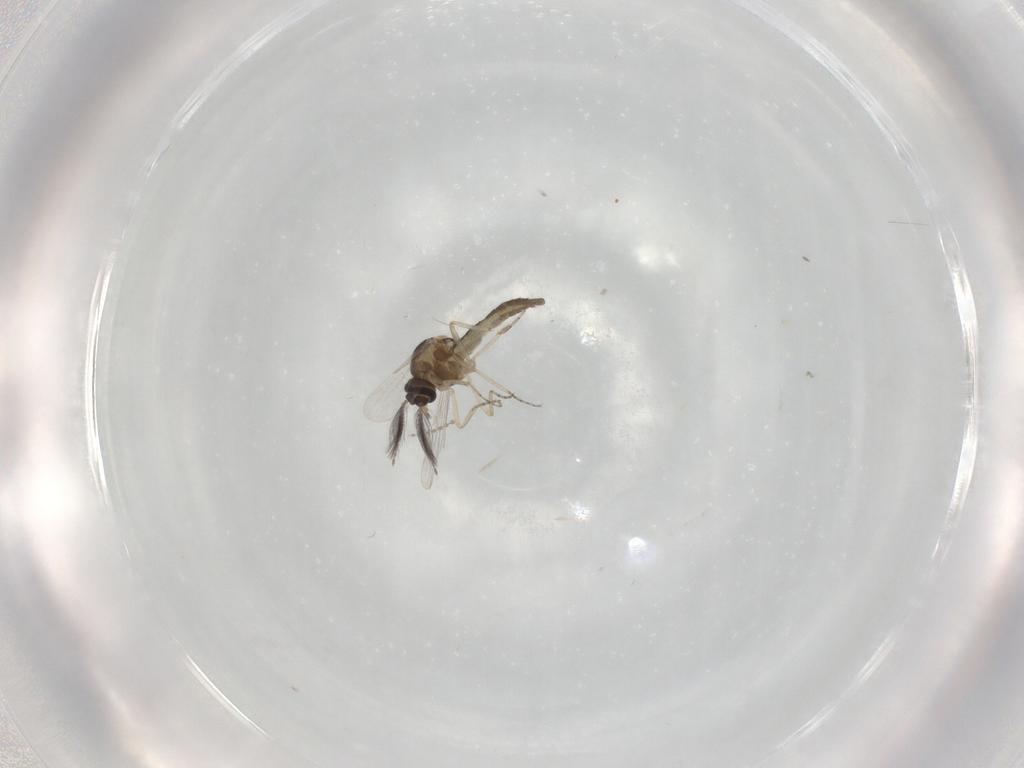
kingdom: Animalia
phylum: Arthropoda
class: Insecta
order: Diptera
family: Ceratopogonidae
